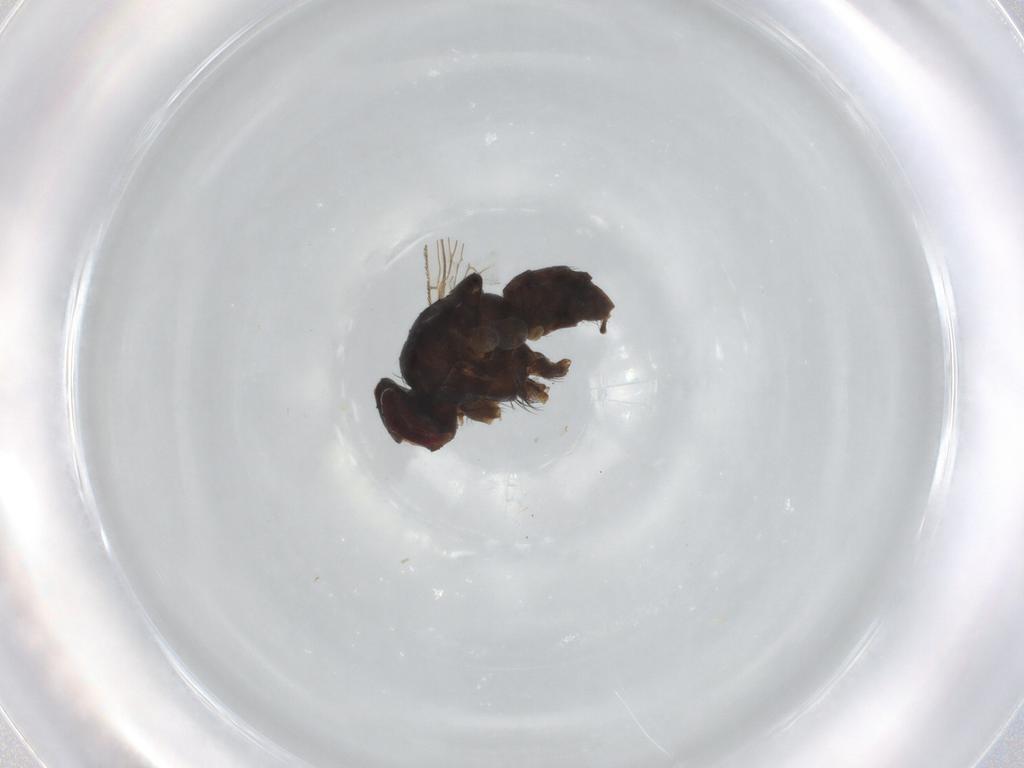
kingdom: Animalia
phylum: Arthropoda
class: Insecta
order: Diptera
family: Muscidae
